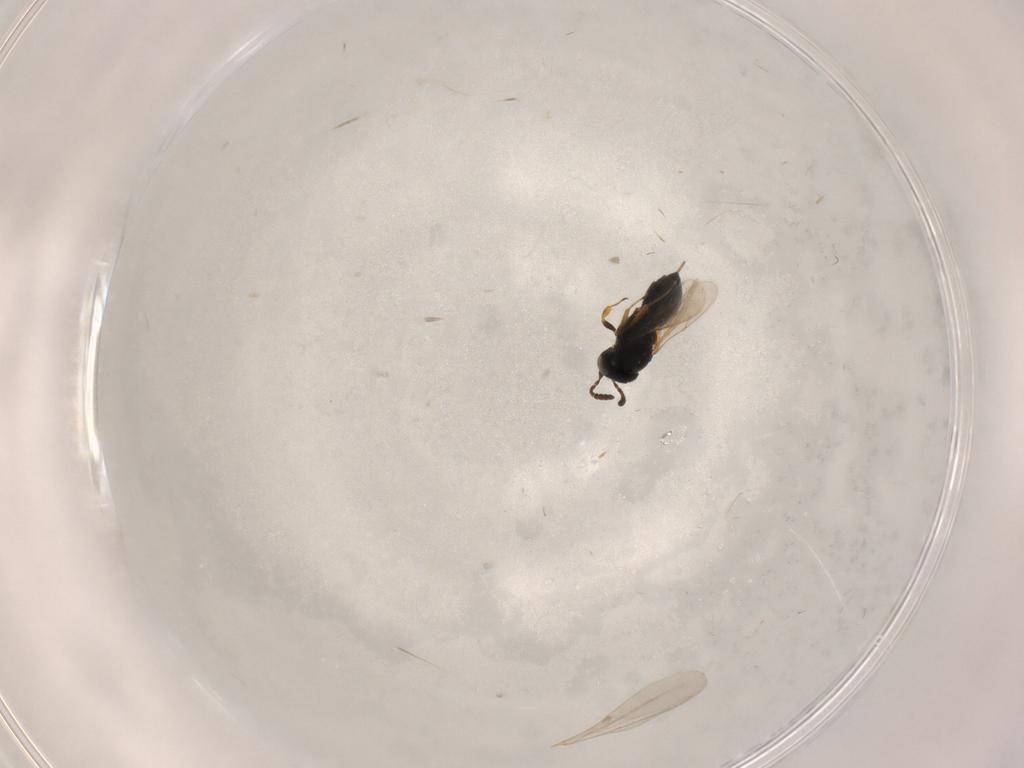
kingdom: Animalia
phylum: Arthropoda
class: Insecta
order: Hymenoptera
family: Scelionidae
